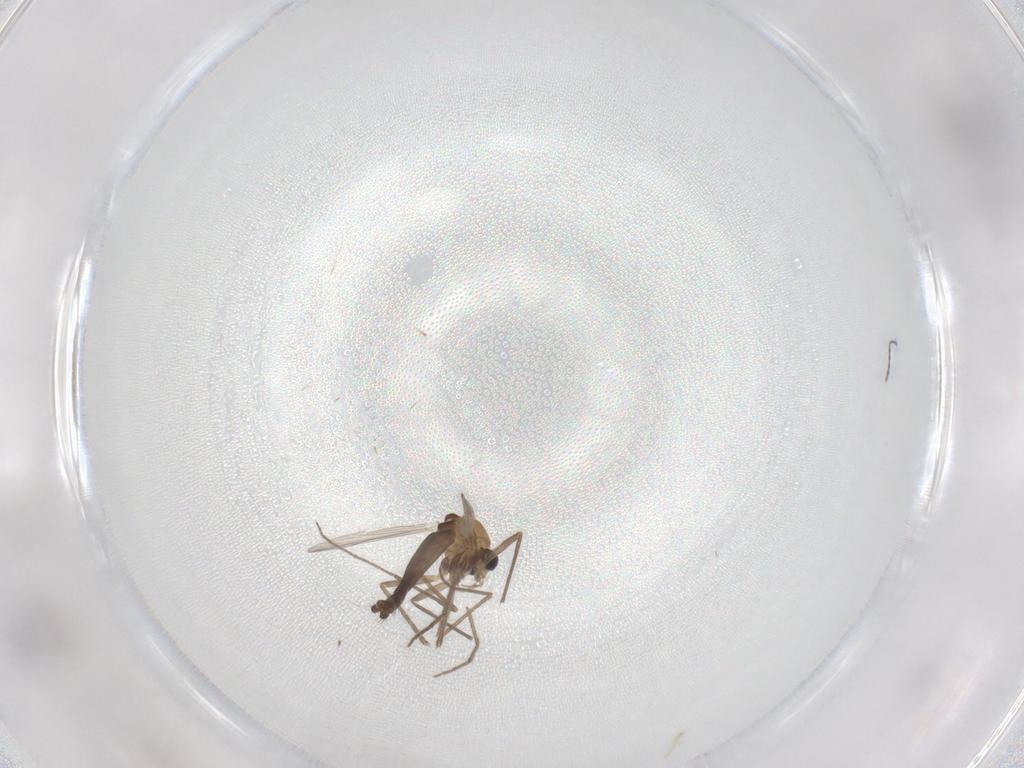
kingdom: Animalia
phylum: Arthropoda
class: Insecta
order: Diptera
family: Chironomidae
